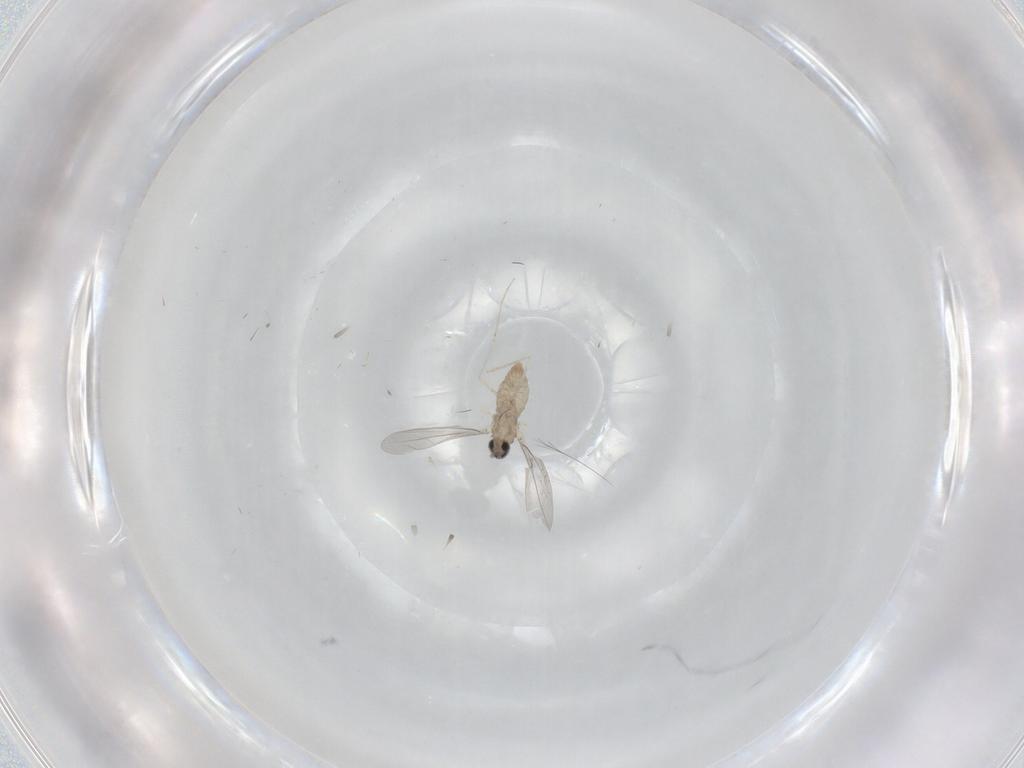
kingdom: Animalia
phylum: Arthropoda
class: Insecta
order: Diptera
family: Cecidomyiidae
